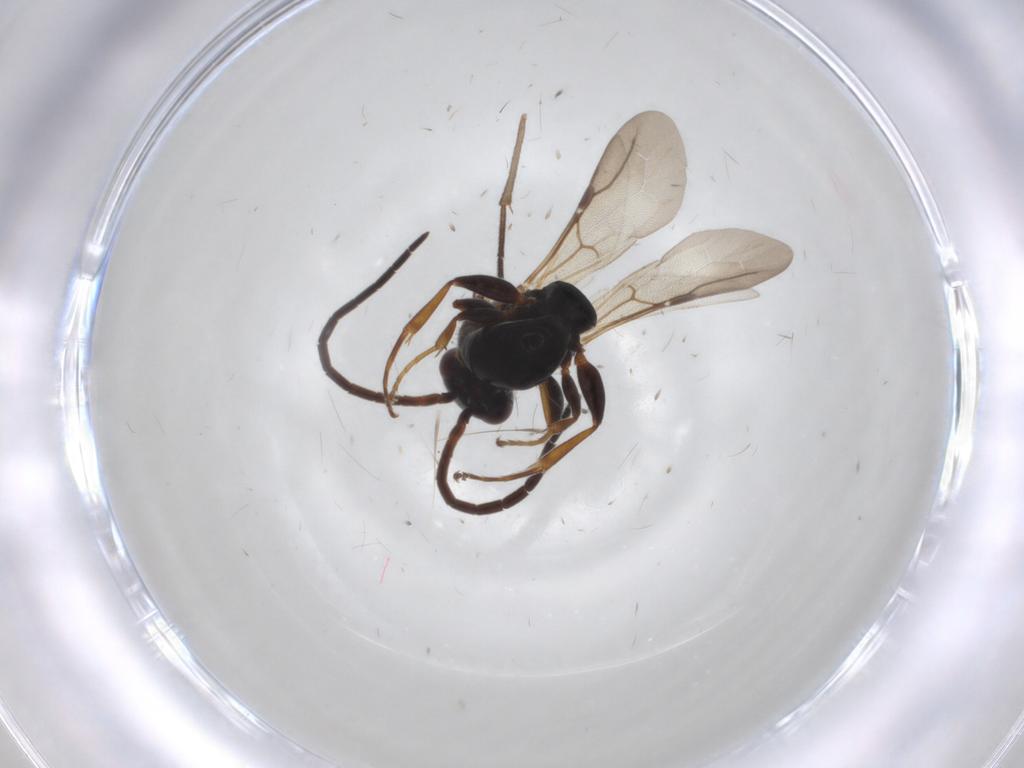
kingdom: Animalia
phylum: Arthropoda
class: Insecta
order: Hymenoptera
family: Bethylidae
